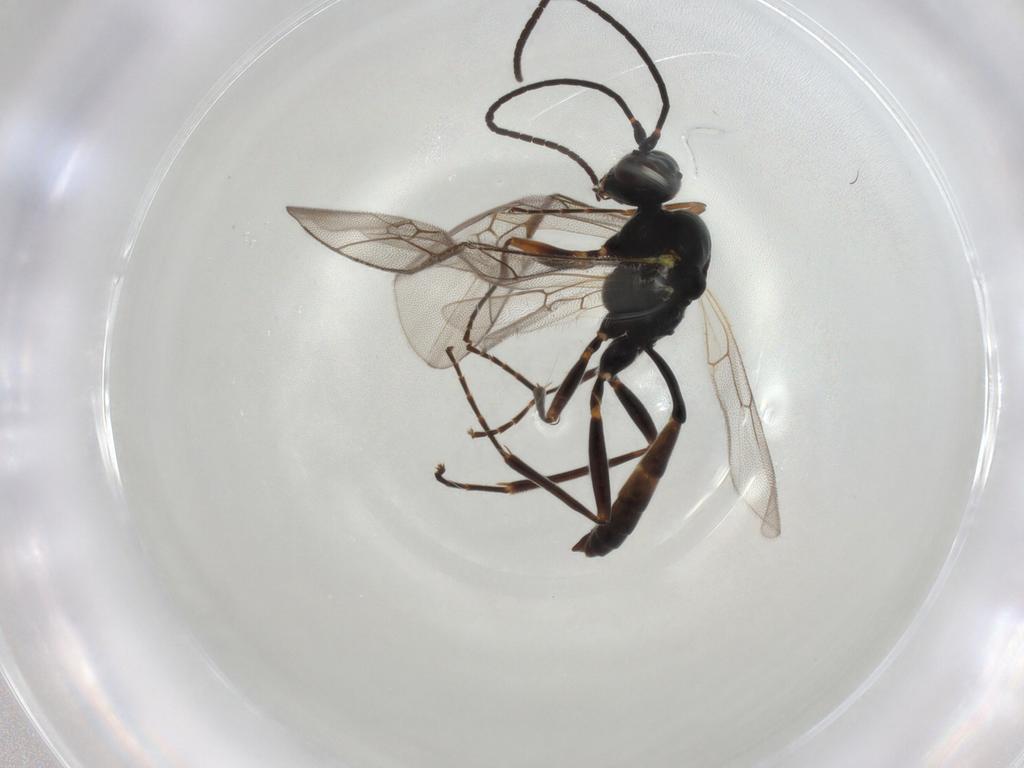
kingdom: Animalia
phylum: Arthropoda
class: Insecta
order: Hymenoptera
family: Ichneumonidae
